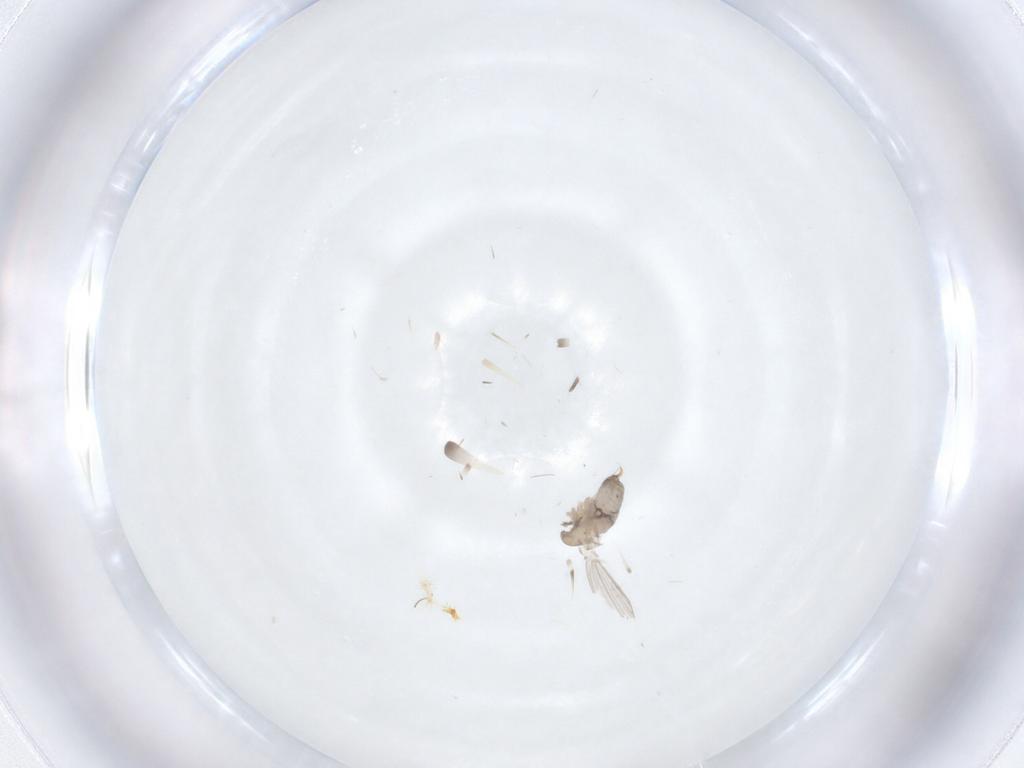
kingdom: Animalia
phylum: Arthropoda
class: Insecta
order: Diptera
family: Psychodidae
